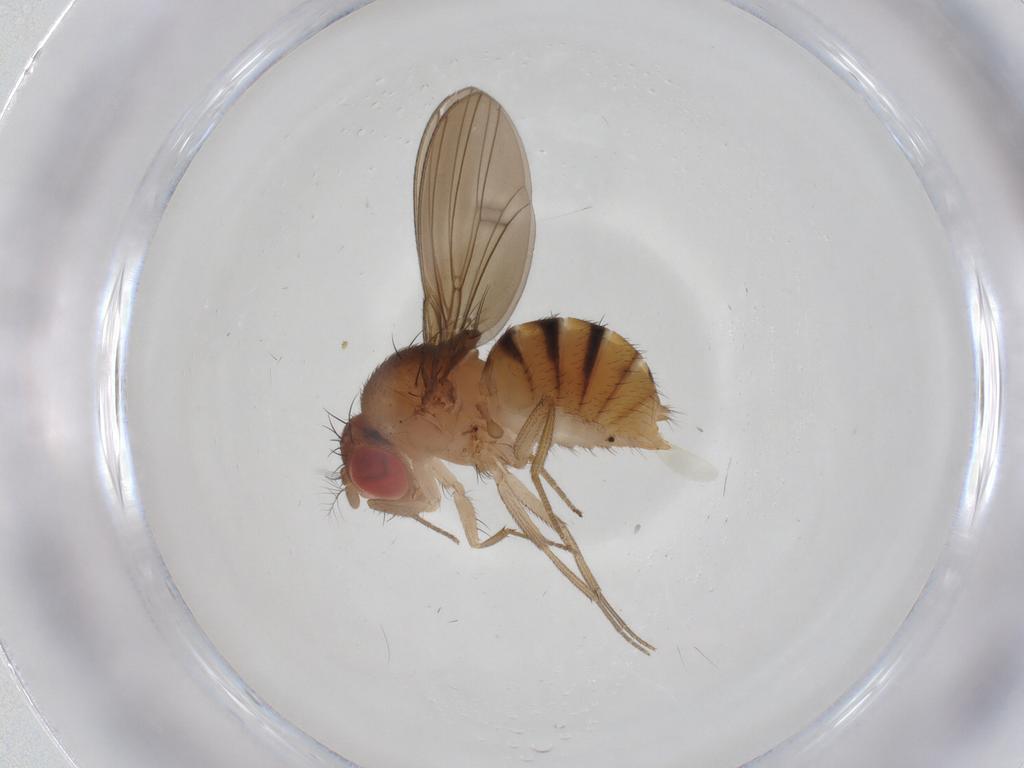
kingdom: Animalia
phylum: Arthropoda
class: Insecta
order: Diptera
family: Drosophilidae
